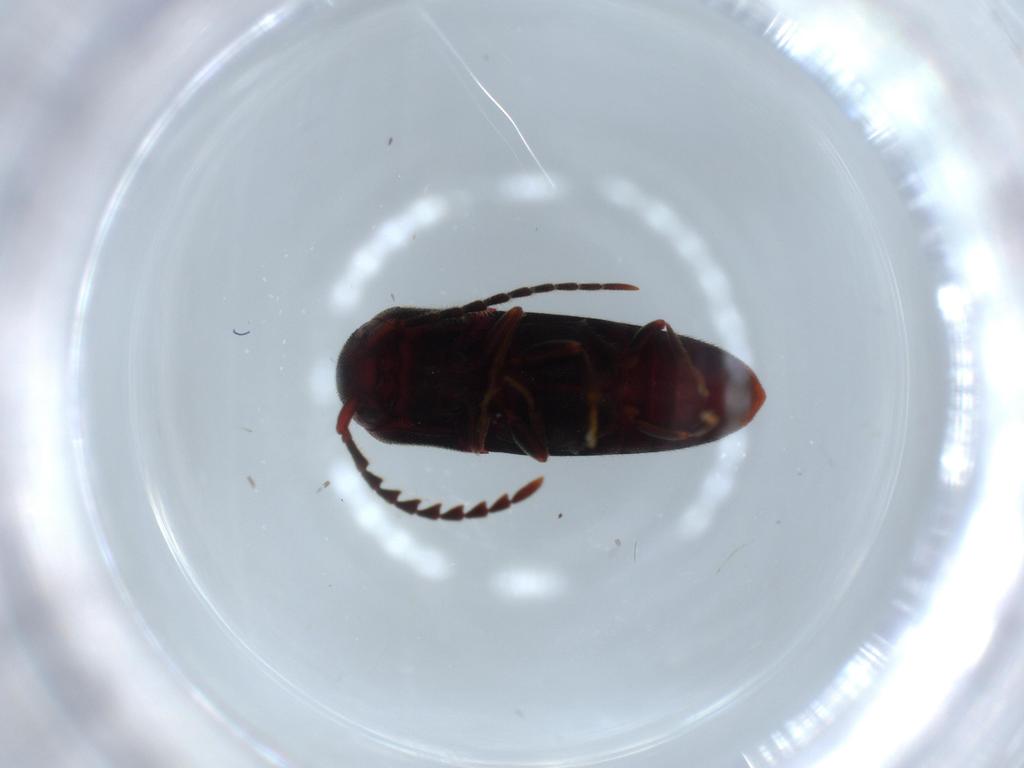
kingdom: Animalia
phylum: Arthropoda
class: Insecta
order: Coleoptera
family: Eucnemidae
